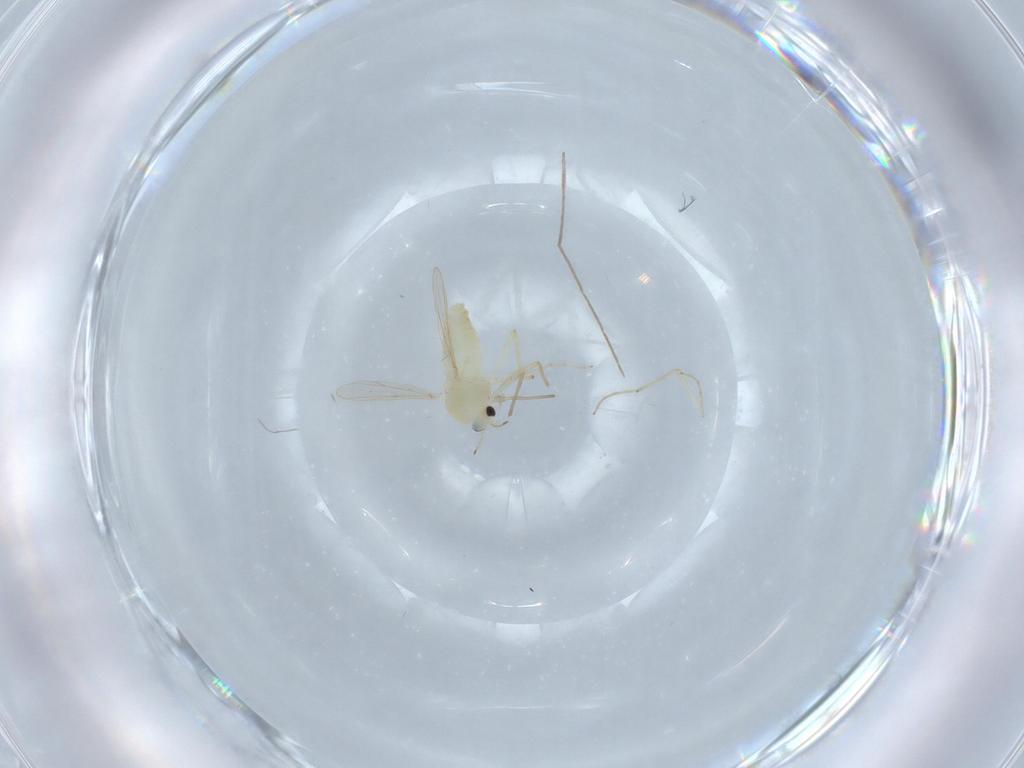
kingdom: Animalia
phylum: Arthropoda
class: Insecta
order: Diptera
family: Chironomidae
